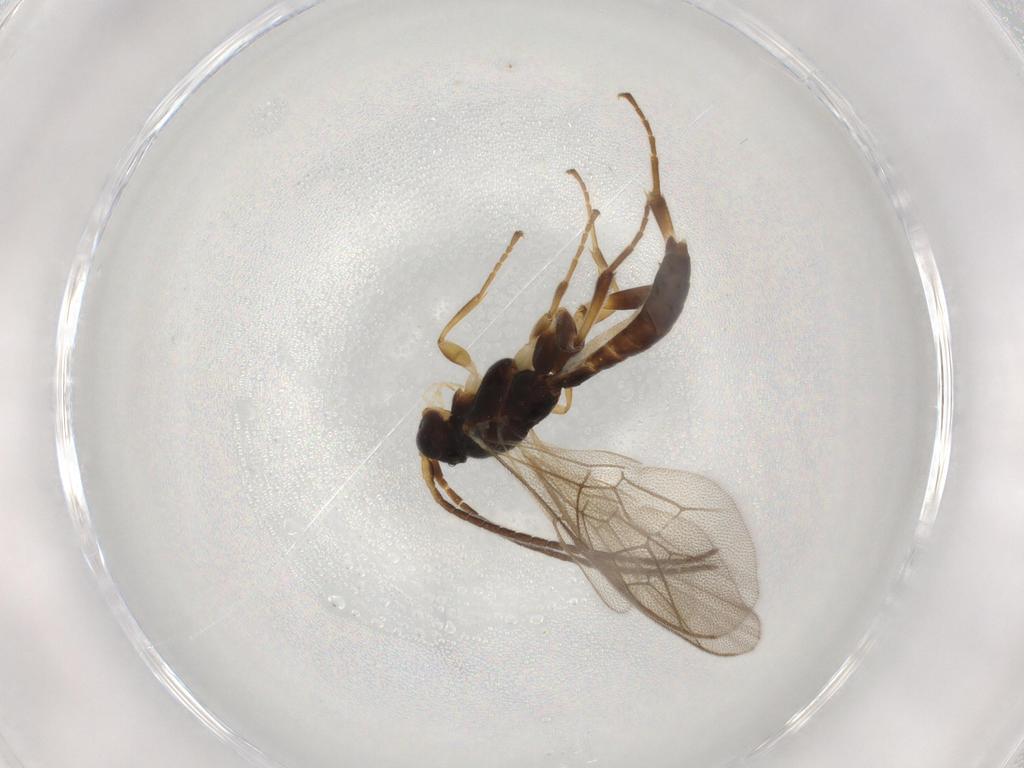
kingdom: Animalia
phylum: Arthropoda
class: Insecta
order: Hymenoptera
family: Ichneumonidae
